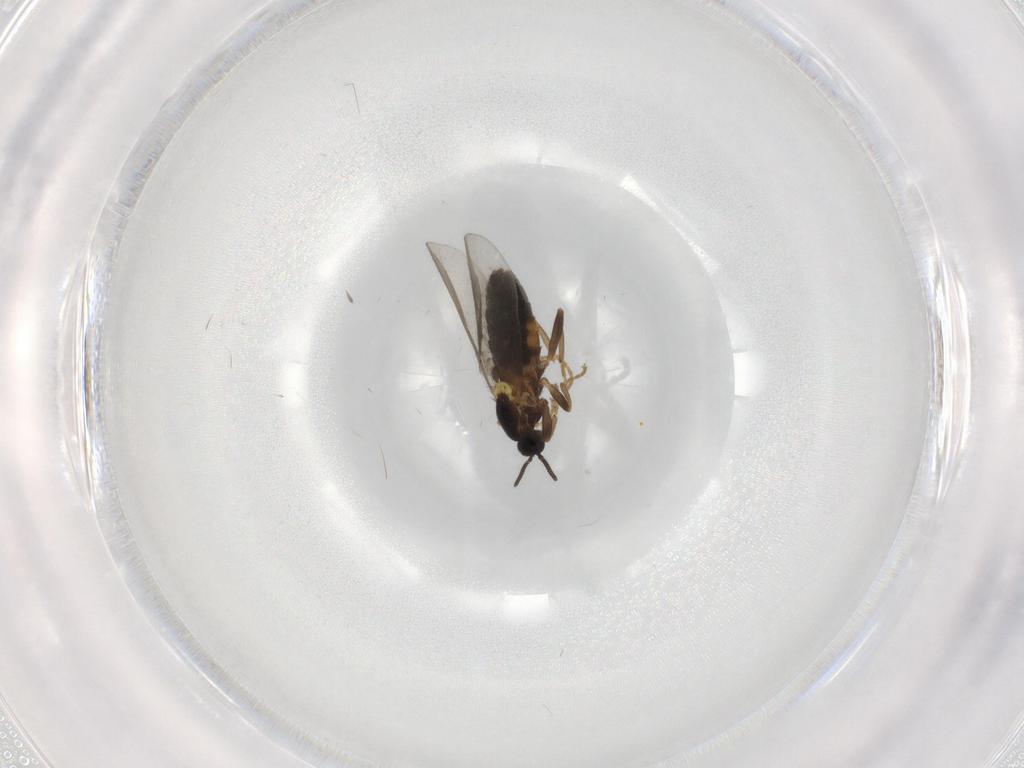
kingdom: Animalia
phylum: Arthropoda
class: Insecta
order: Diptera
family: Scatopsidae
